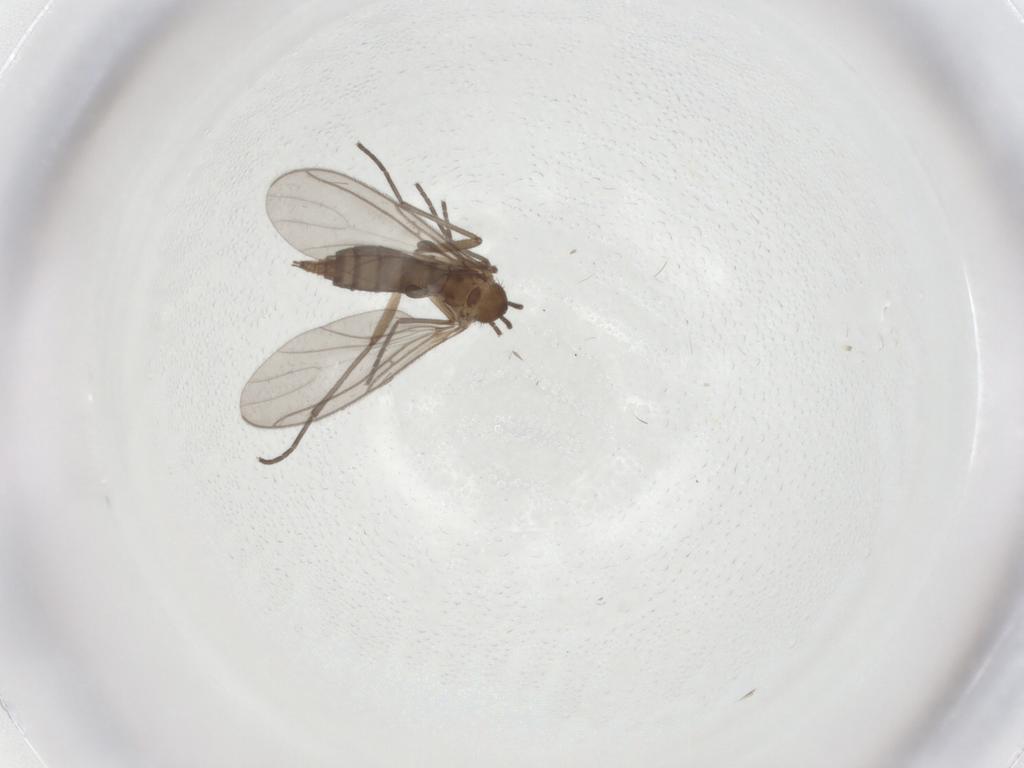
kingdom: Animalia
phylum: Arthropoda
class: Insecta
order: Diptera
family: Sciaridae
